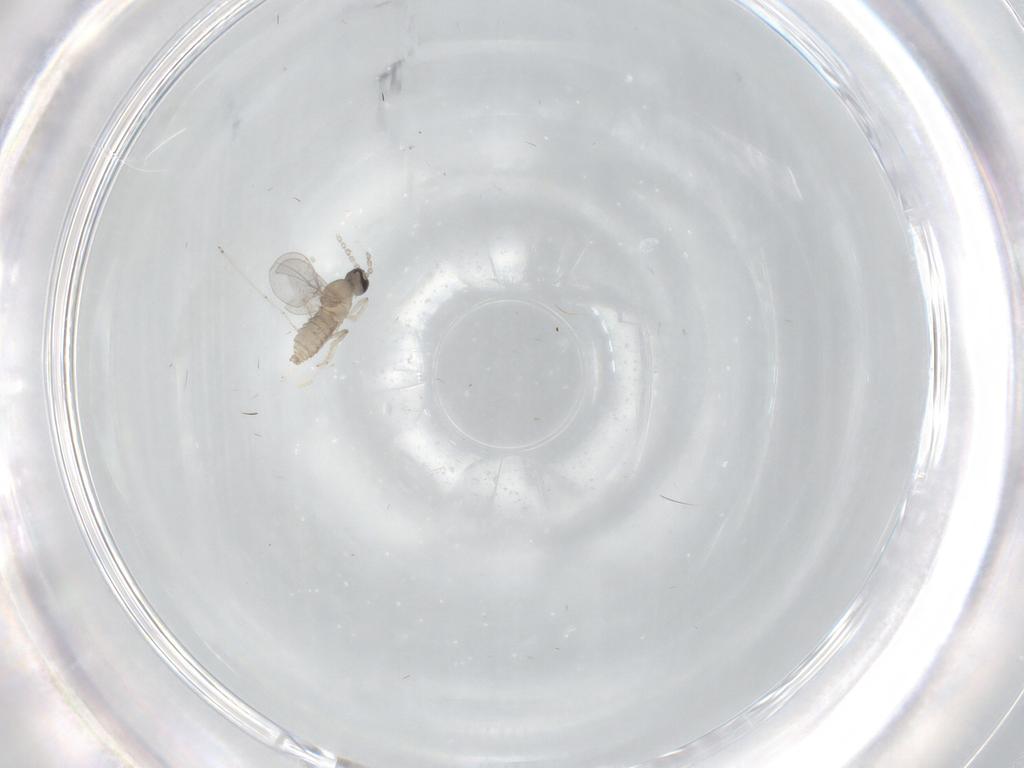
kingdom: Animalia
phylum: Arthropoda
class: Insecta
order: Diptera
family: Cecidomyiidae
